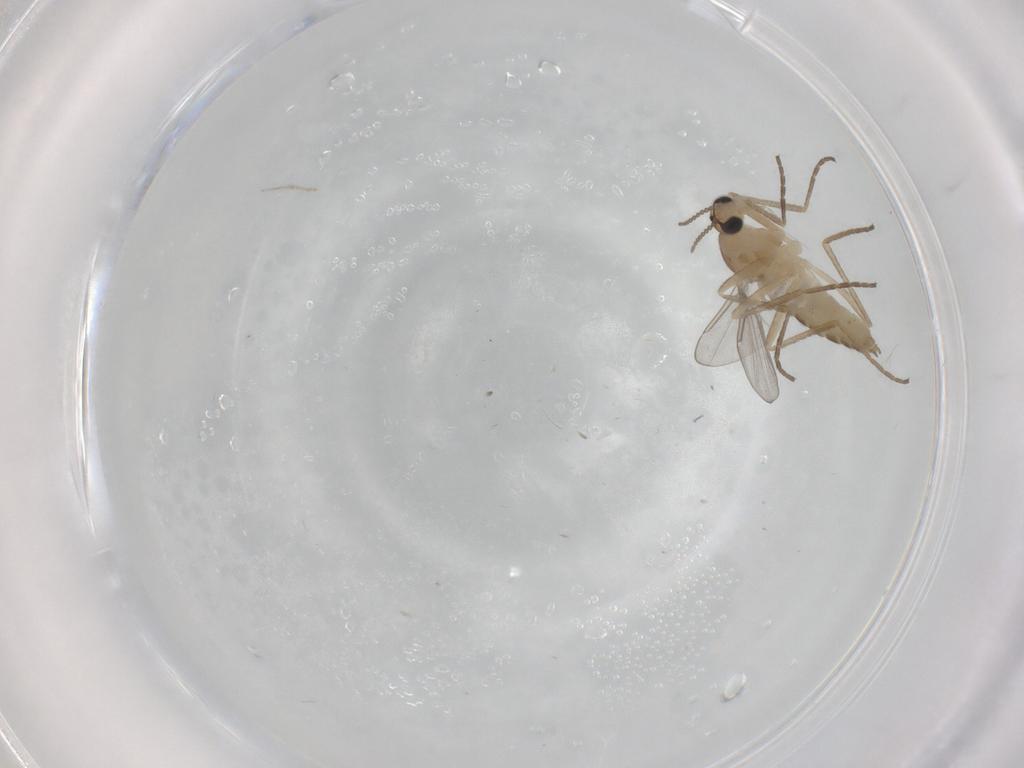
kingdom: Animalia
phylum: Arthropoda
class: Insecta
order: Diptera
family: Cecidomyiidae
